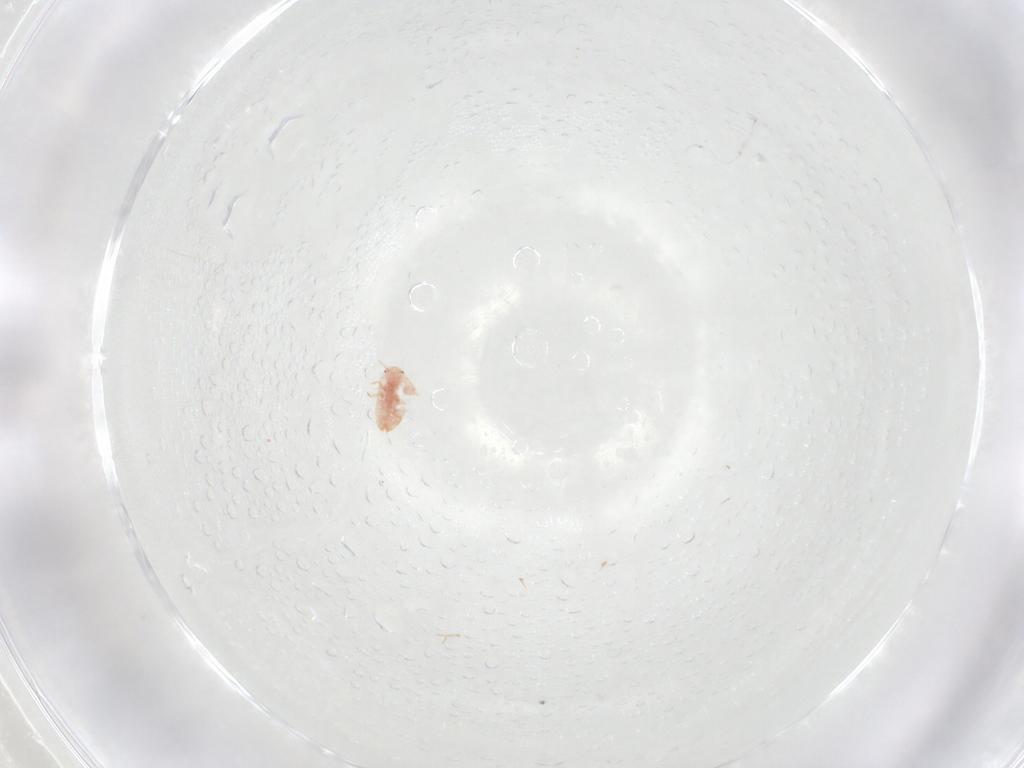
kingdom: Animalia
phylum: Arthropoda
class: Insecta
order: Hemiptera
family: Coccidae
